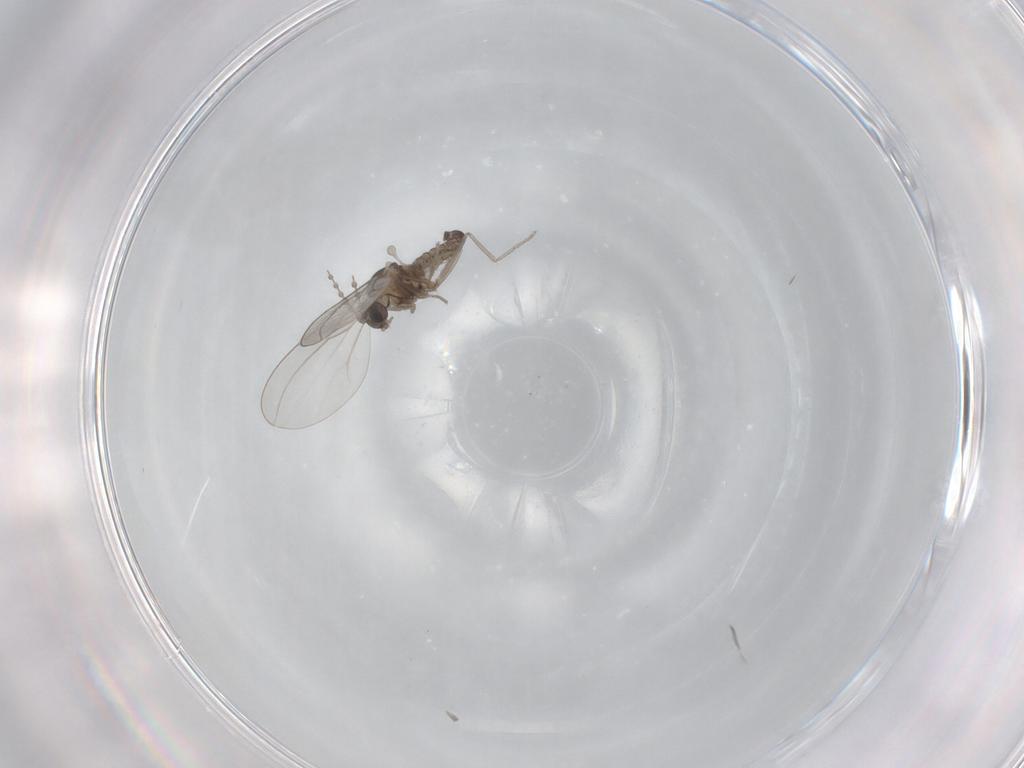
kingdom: Animalia
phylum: Arthropoda
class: Insecta
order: Diptera
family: Cecidomyiidae
